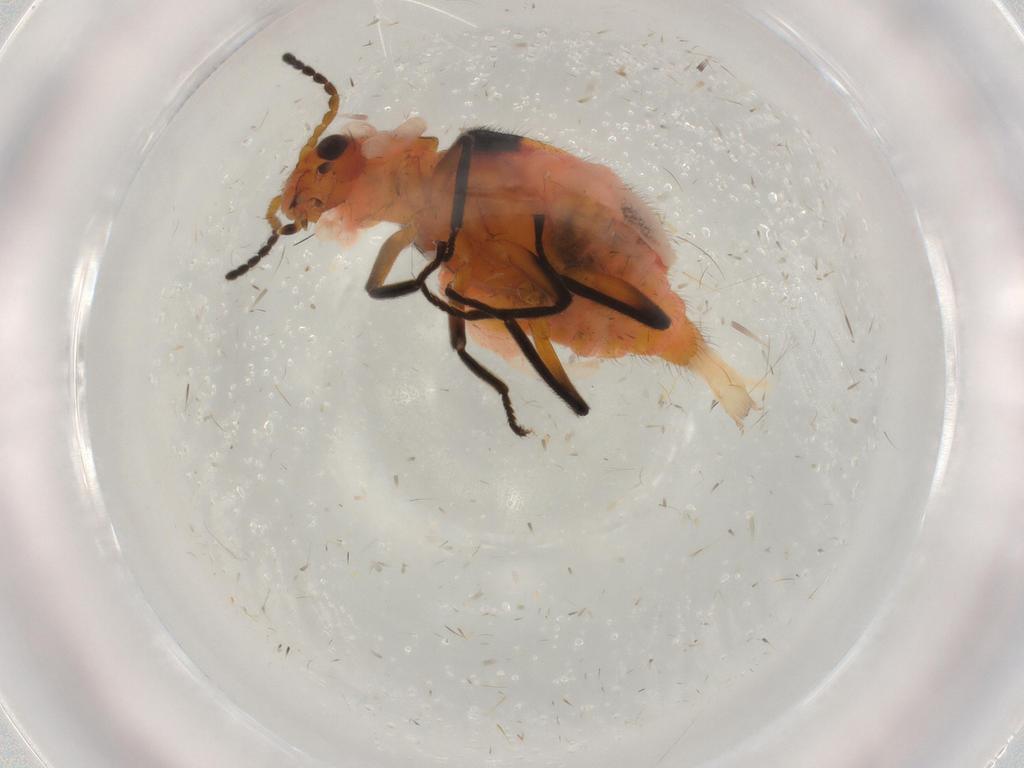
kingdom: Animalia
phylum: Arthropoda
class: Insecta
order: Coleoptera
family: Melyridae
